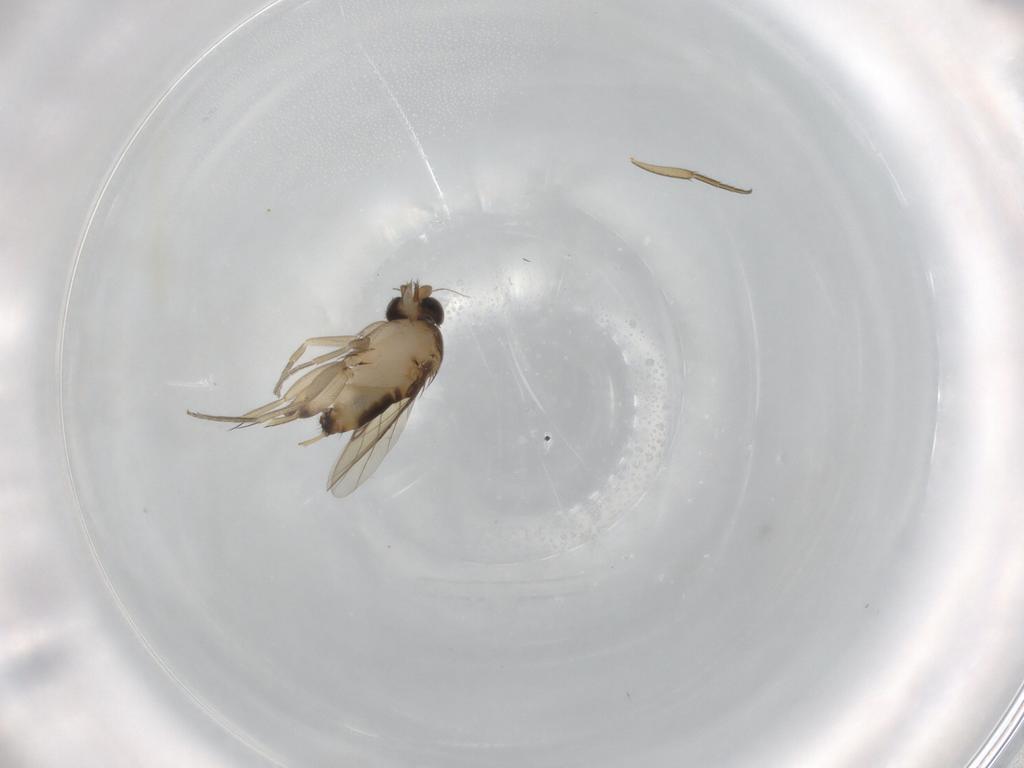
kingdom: Animalia
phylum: Arthropoda
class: Insecta
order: Diptera
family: Phoridae
